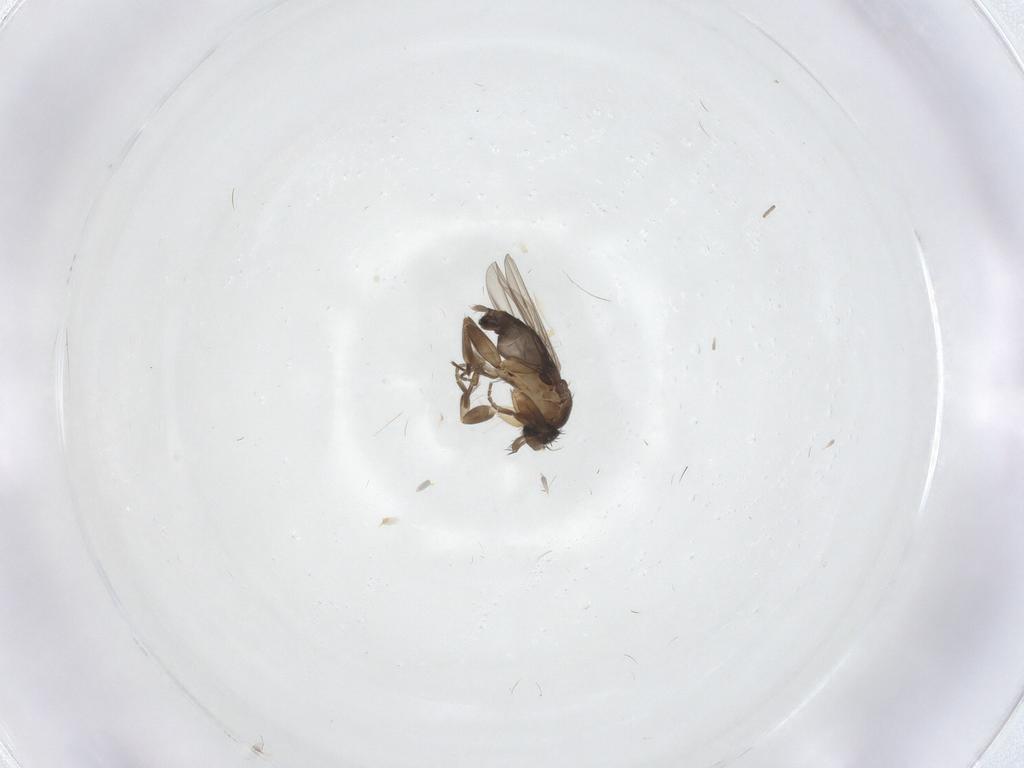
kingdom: Animalia
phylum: Arthropoda
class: Insecta
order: Diptera
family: Phoridae
